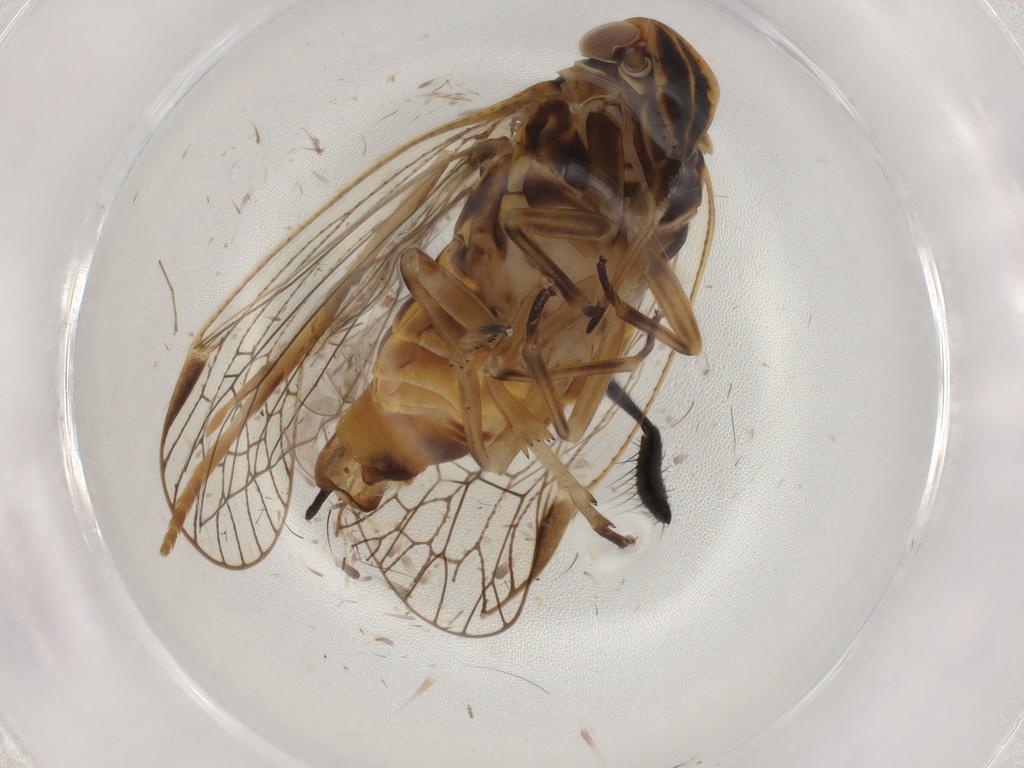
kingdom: Animalia
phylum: Arthropoda
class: Insecta
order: Hemiptera
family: Cixiidae
